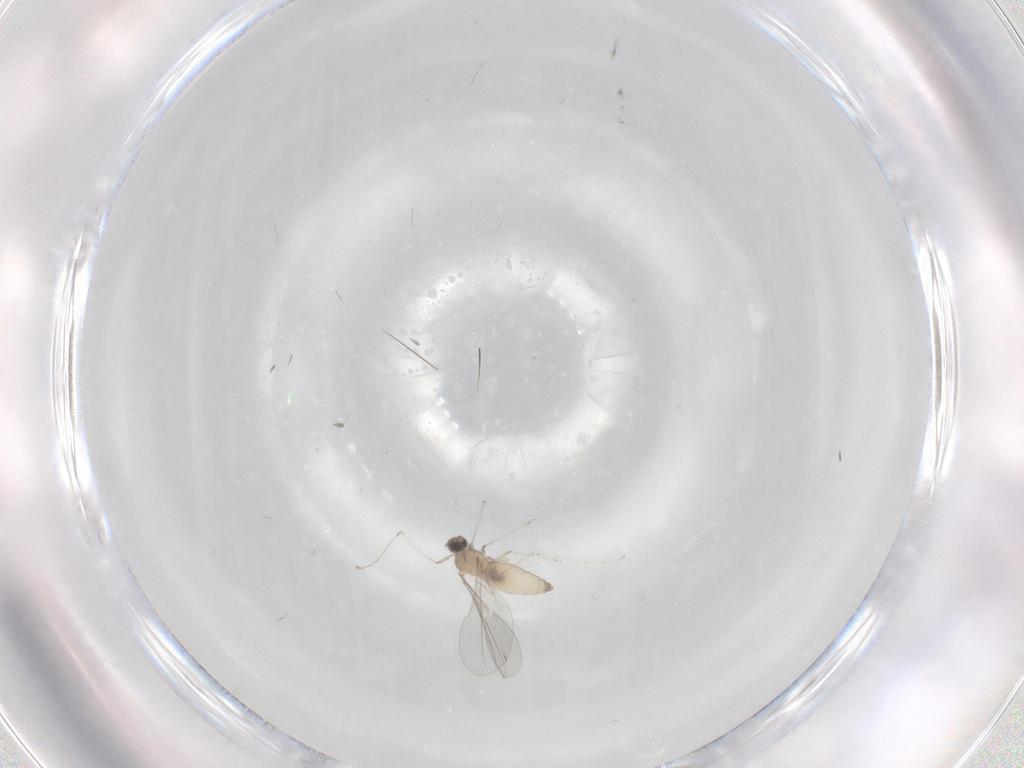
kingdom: Animalia
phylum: Arthropoda
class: Insecta
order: Diptera
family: Cecidomyiidae
